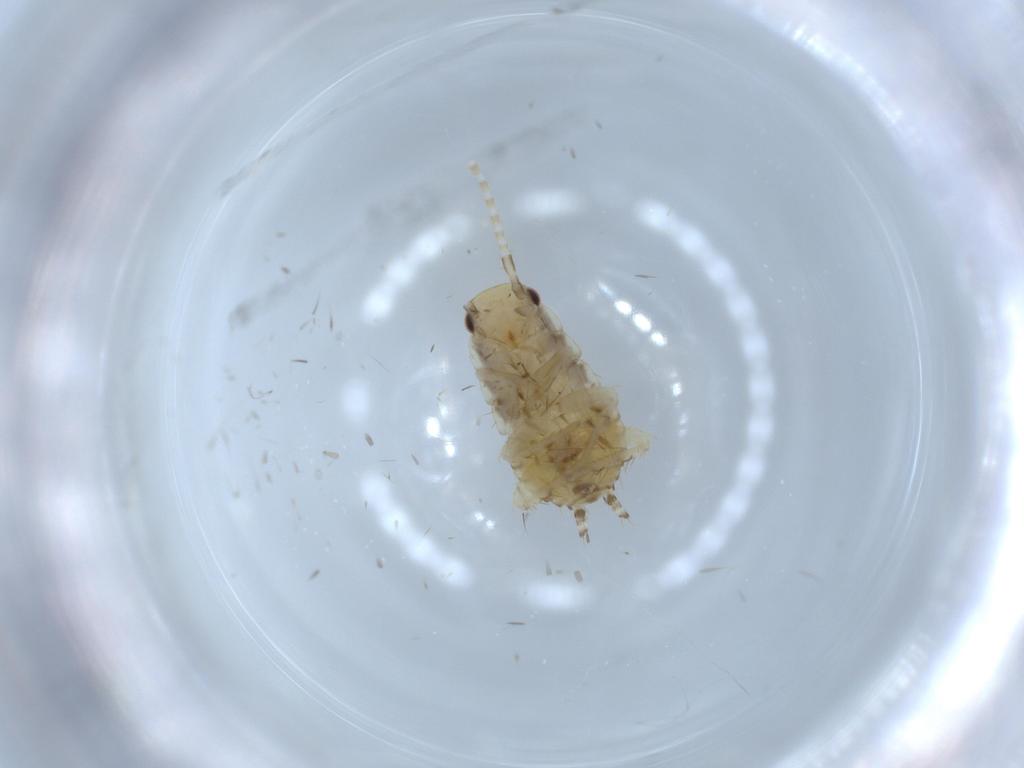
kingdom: Animalia
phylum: Arthropoda
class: Insecta
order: Blattodea
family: Ectobiidae
